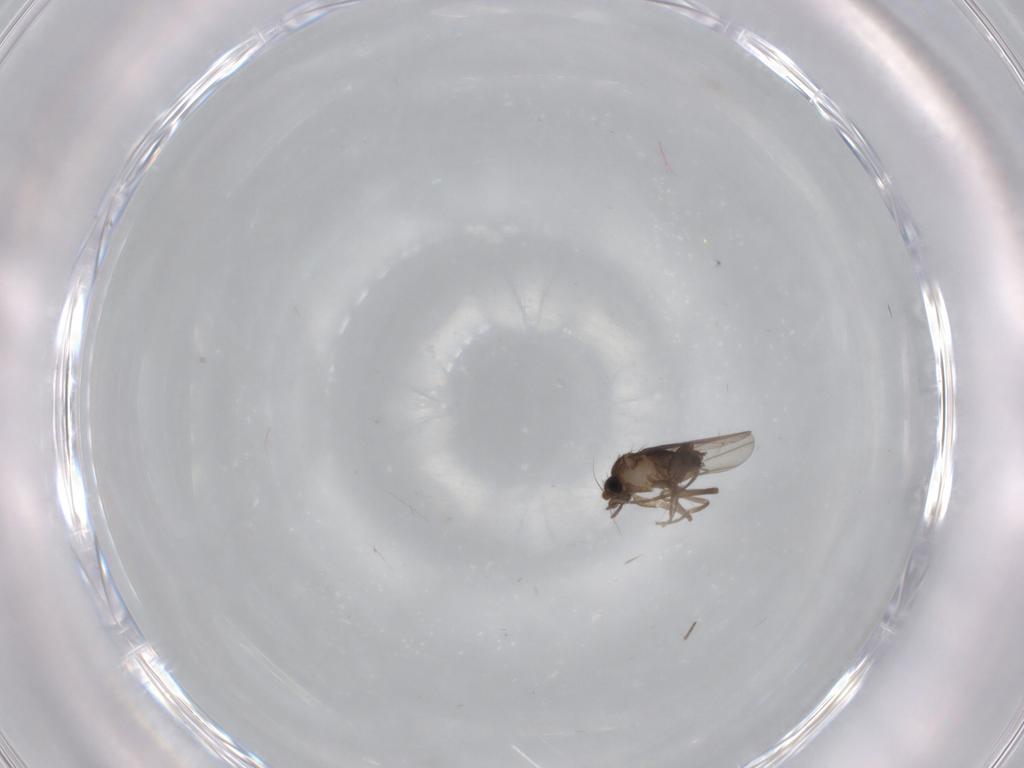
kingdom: Animalia
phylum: Arthropoda
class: Insecta
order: Diptera
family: Cecidomyiidae
